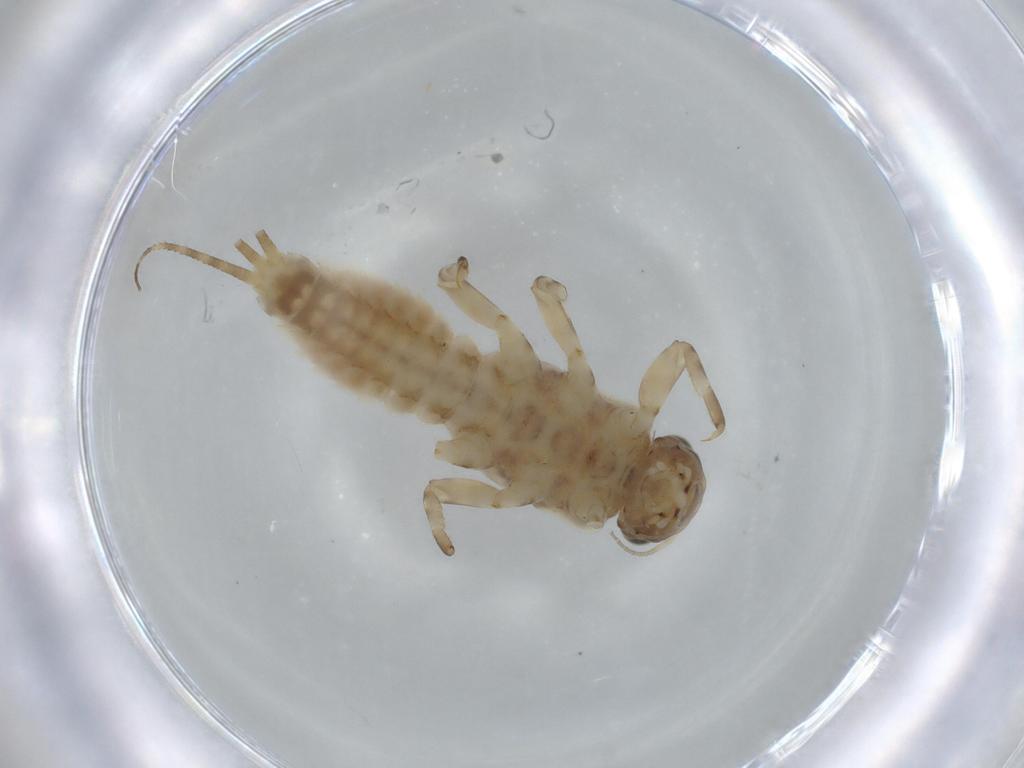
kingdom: Animalia
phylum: Arthropoda
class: Insecta
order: Ephemeroptera
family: Ephemerellidae
